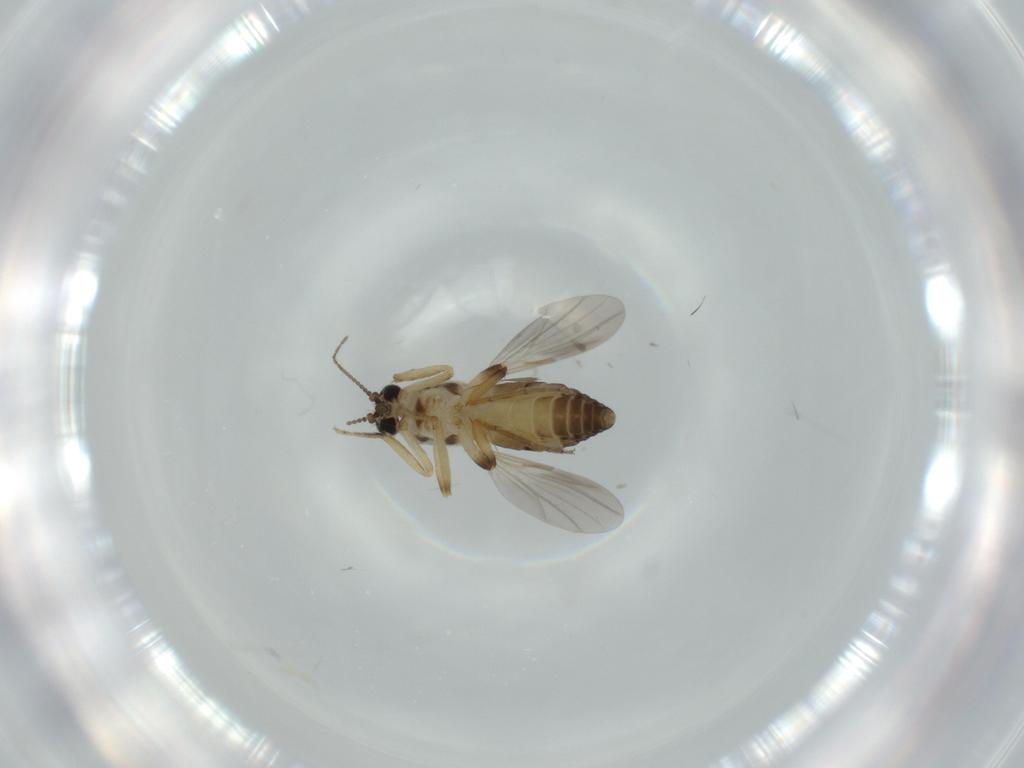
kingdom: Animalia
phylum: Arthropoda
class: Insecta
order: Diptera
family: Ceratopogonidae
